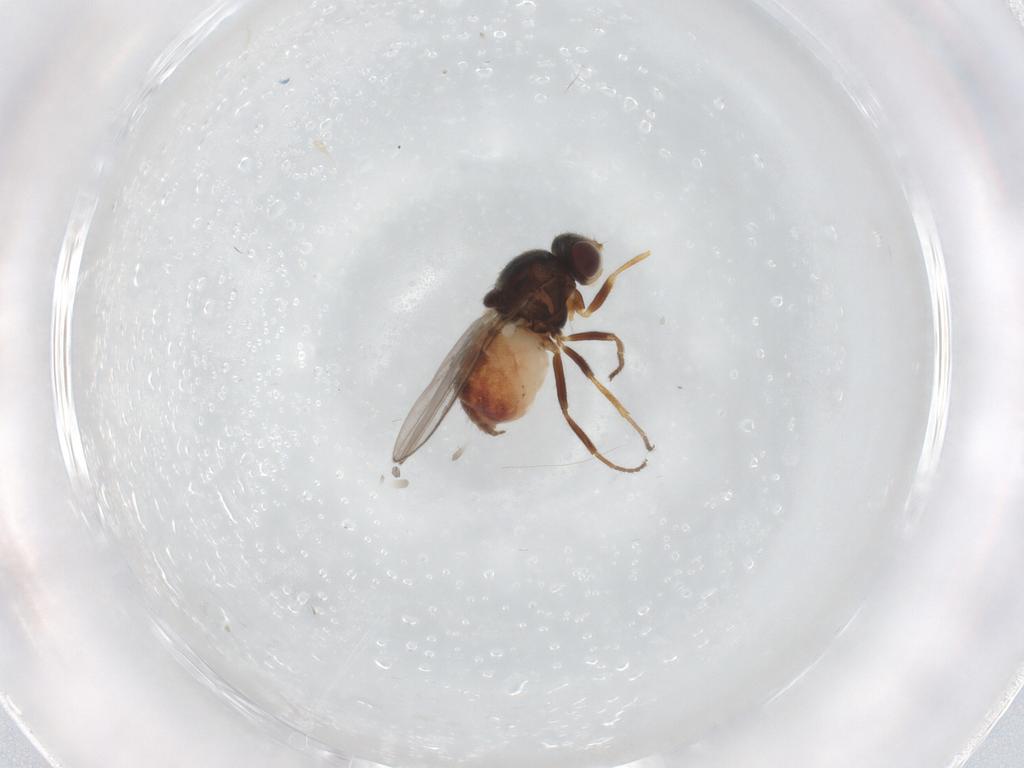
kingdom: Animalia
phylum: Arthropoda
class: Insecta
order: Diptera
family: Chloropidae
